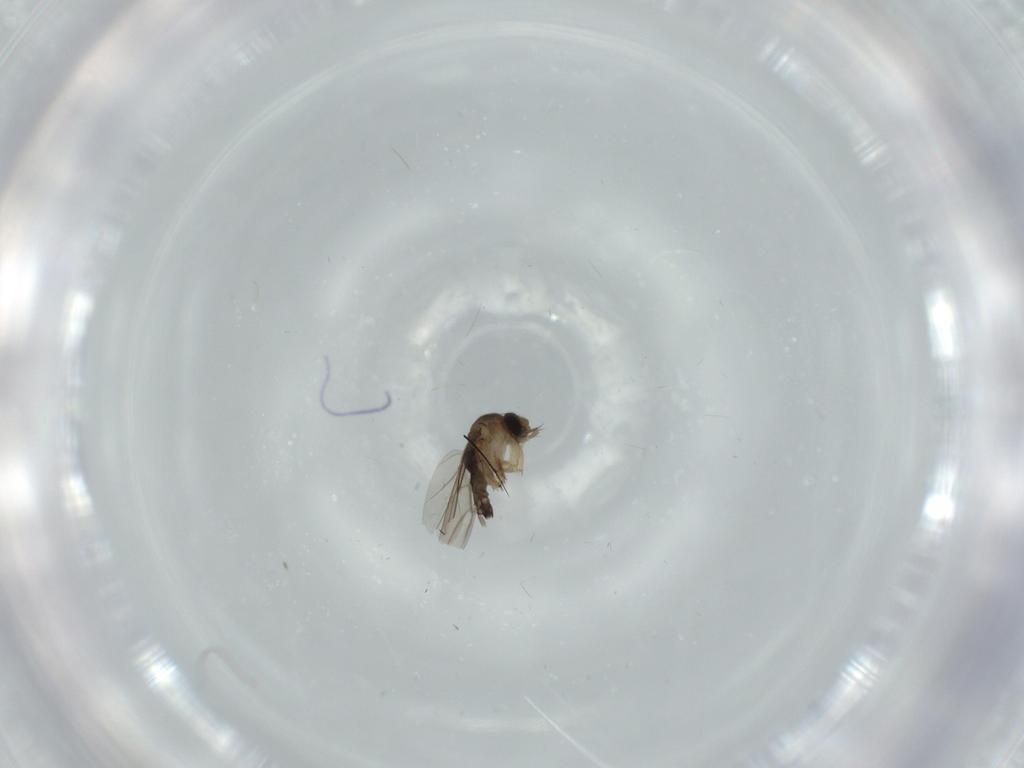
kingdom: Animalia
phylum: Arthropoda
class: Insecta
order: Diptera
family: Phoridae
